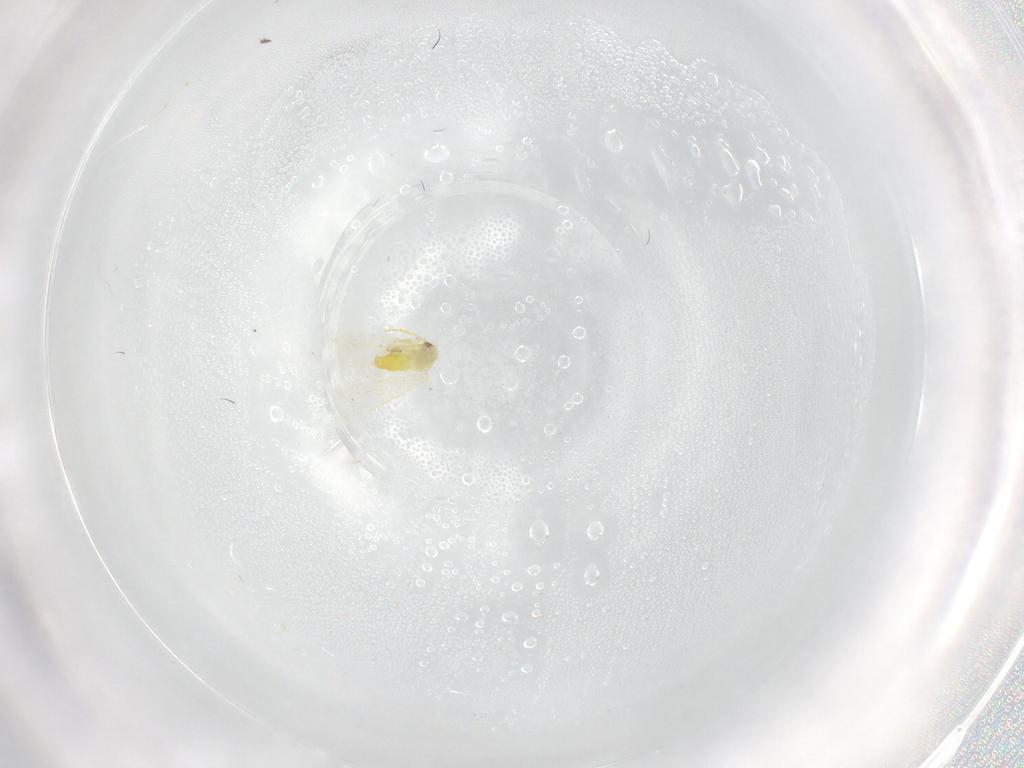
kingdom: Animalia
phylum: Arthropoda
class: Insecta
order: Hemiptera
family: Aleyrodidae
